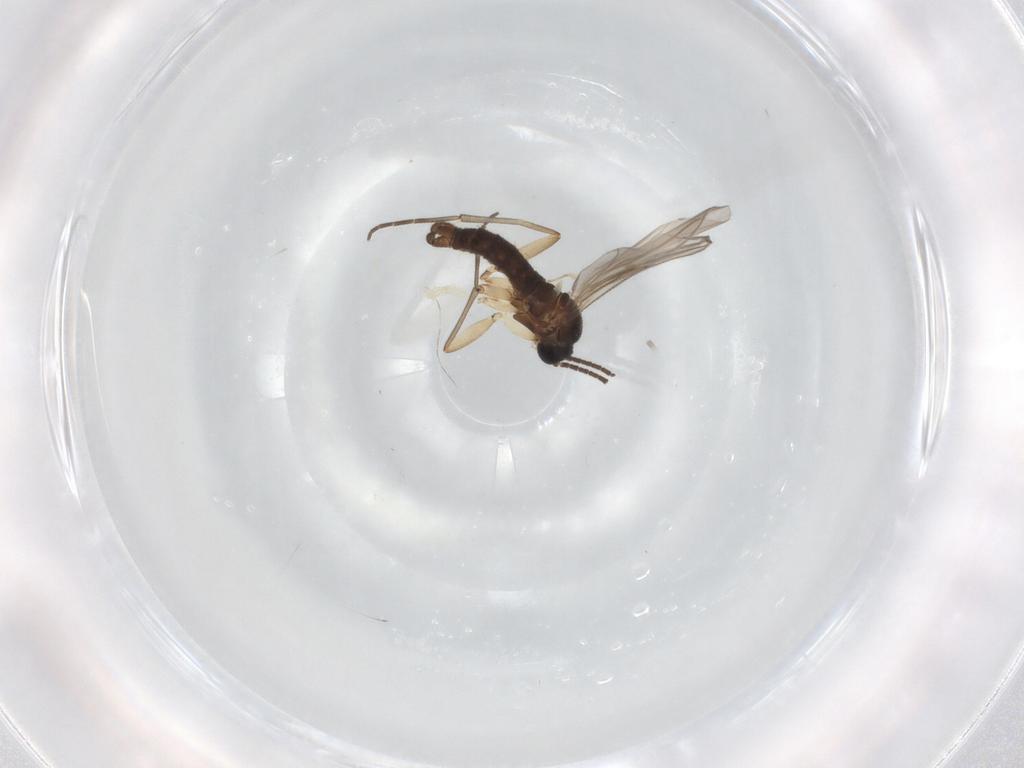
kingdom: Animalia
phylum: Arthropoda
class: Insecta
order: Diptera
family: Sciaridae
